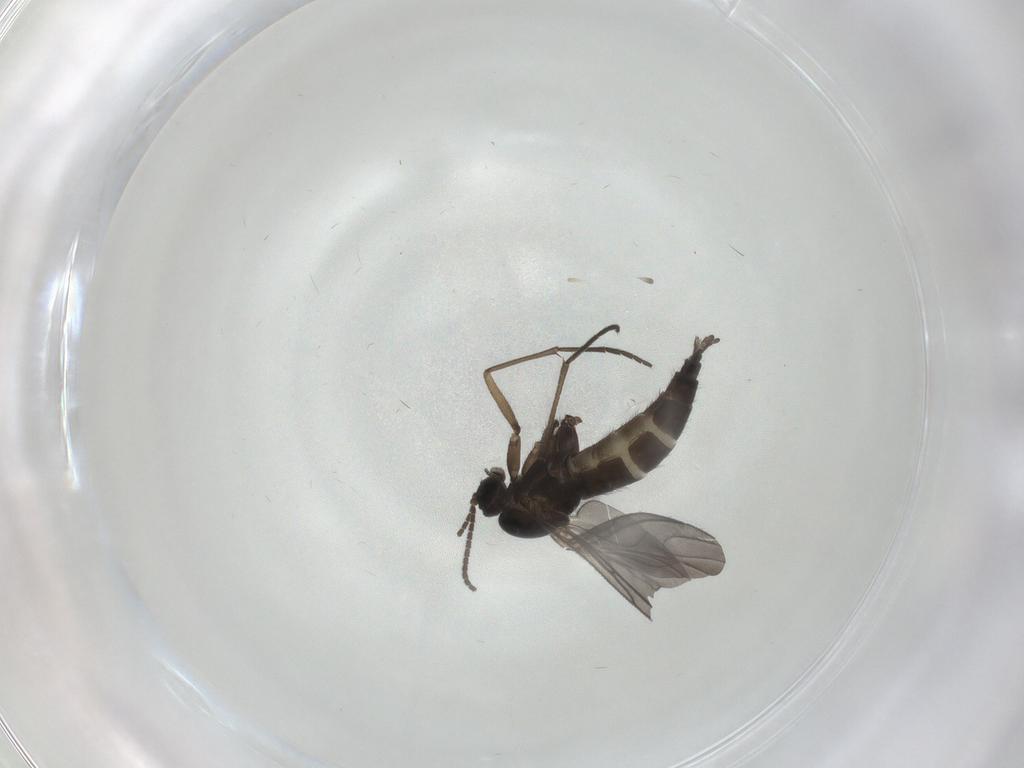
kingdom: Animalia
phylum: Arthropoda
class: Insecta
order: Diptera
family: Sciaridae
